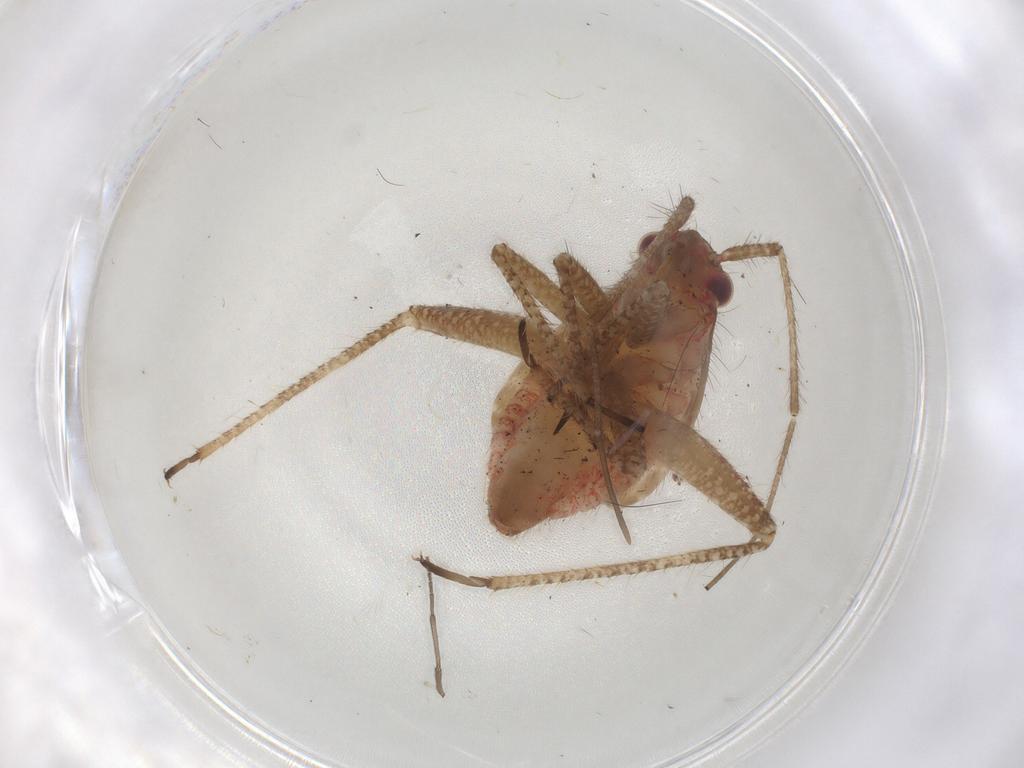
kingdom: Animalia
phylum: Arthropoda
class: Insecta
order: Hemiptera
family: Miridae
